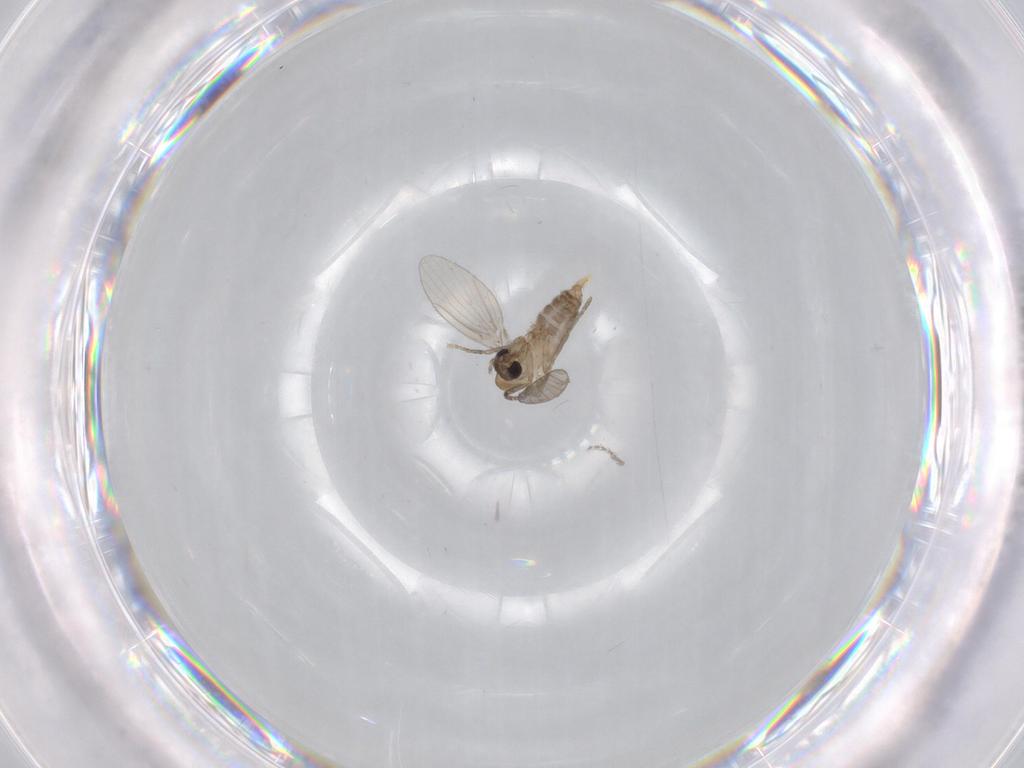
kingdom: Animalia
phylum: Arthropoda
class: Insecta
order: Diptera
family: Psychodidae
